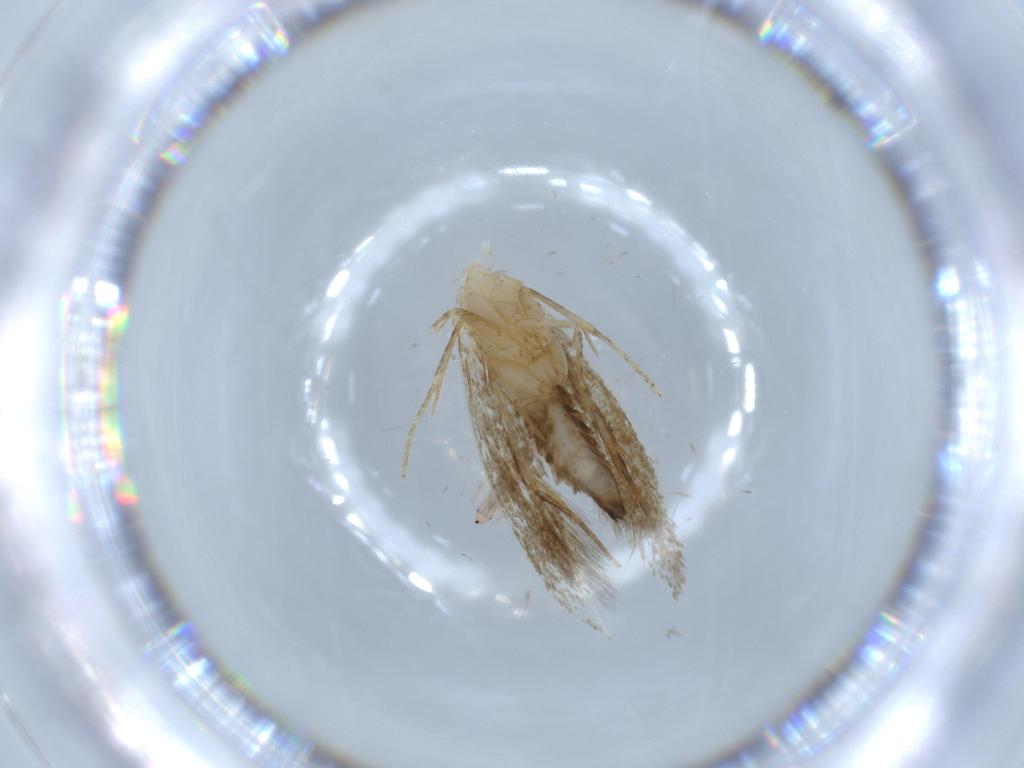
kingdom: Animalia
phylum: Arthropoda
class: Insecta
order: Lepidoptera
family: Tineidae
